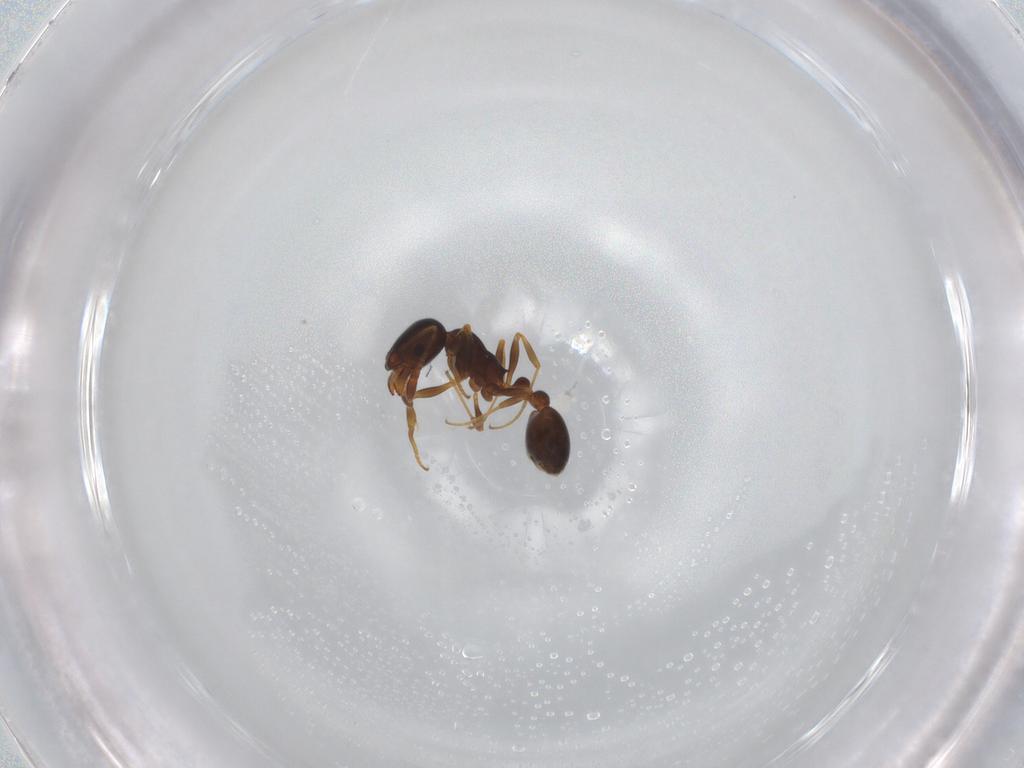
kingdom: Animalia
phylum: Arthropoda
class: Insecta
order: Hymenoptera
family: Formicidae
